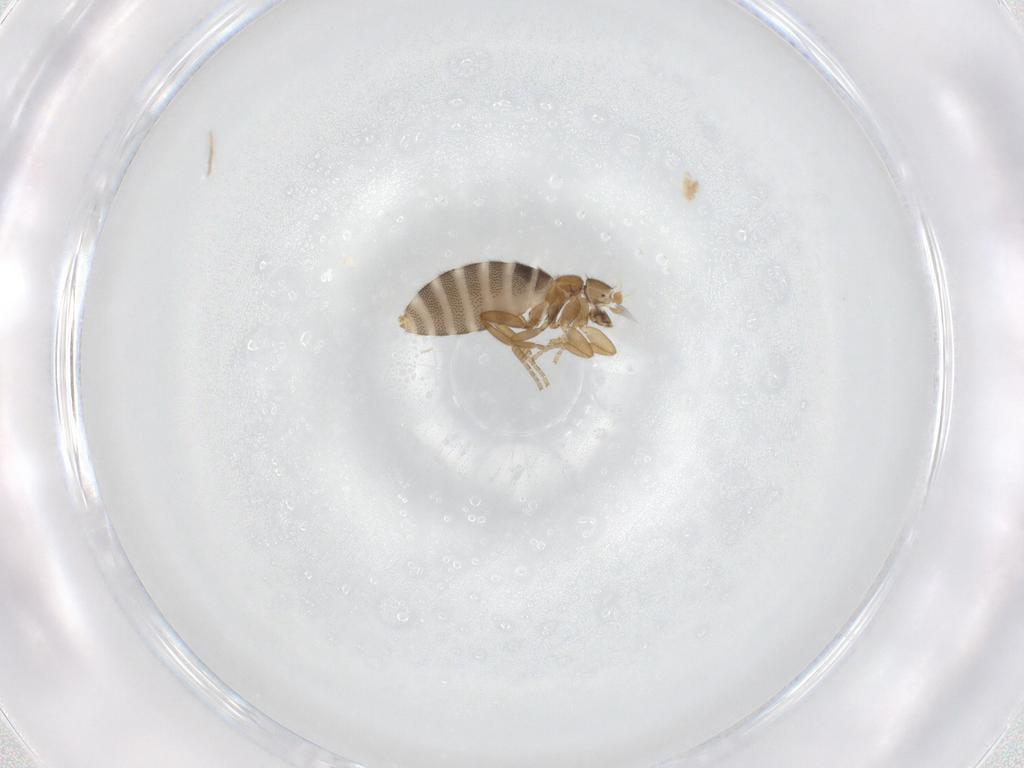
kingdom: Animalia
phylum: Arthropoda
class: Insecta
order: Diptera
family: Phoridae
